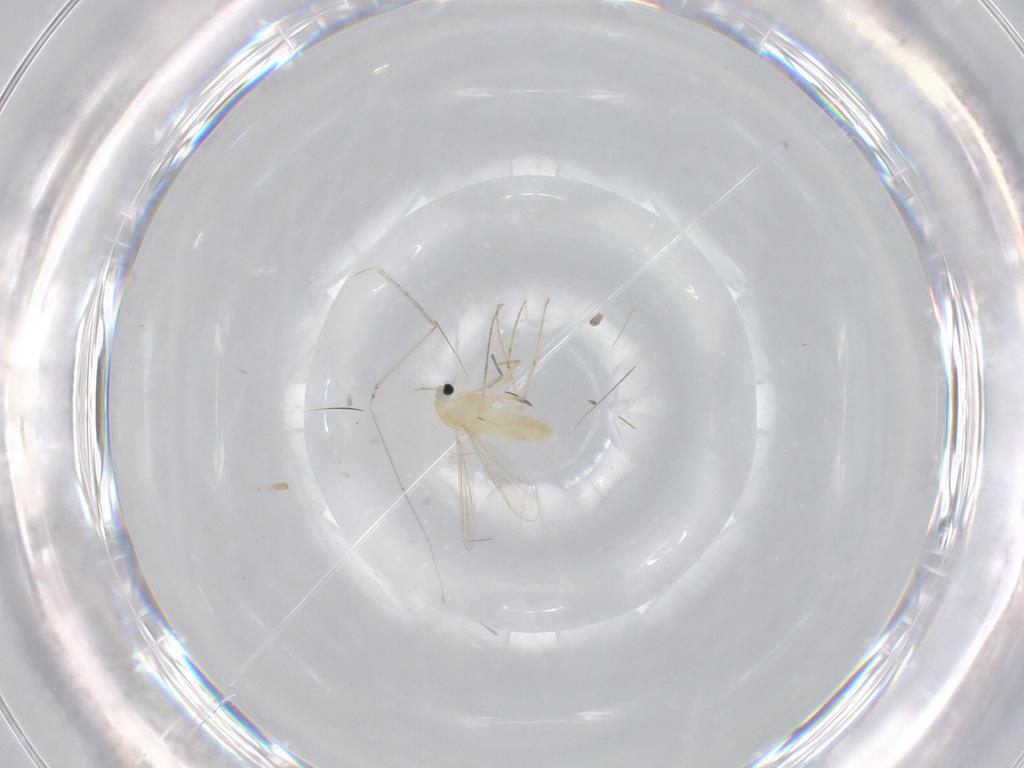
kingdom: Animalia
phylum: Arthropoda
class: Insecta
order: Diptera
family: Chironomidae
